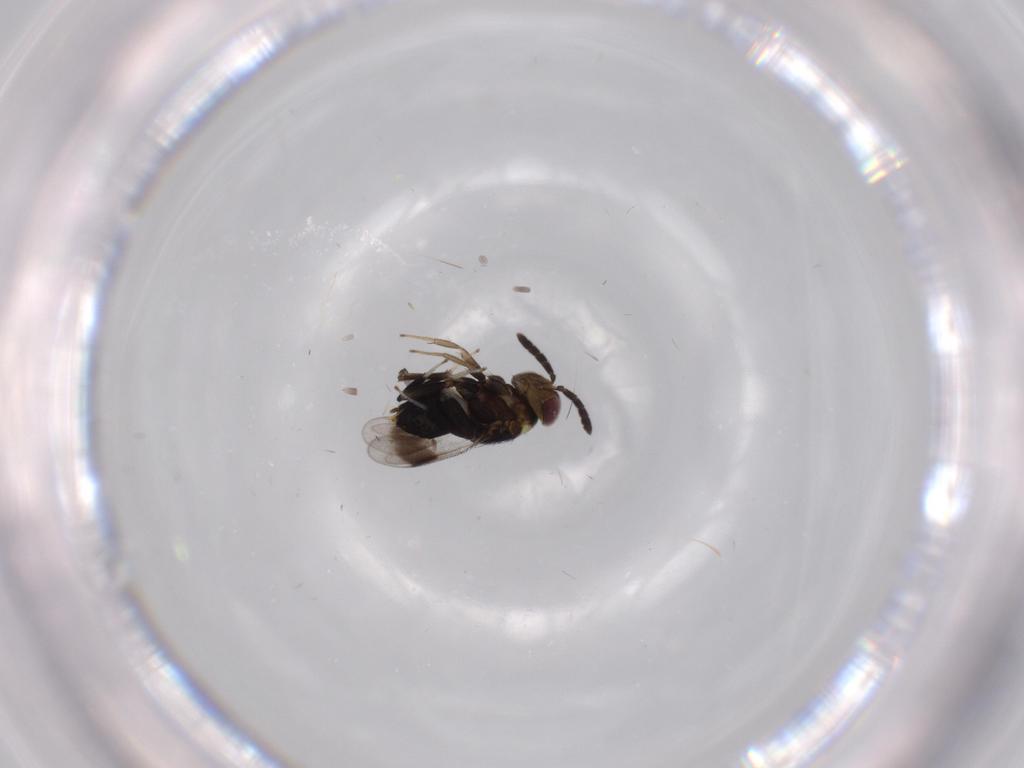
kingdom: Animalia
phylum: Arthropoda
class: Insecta
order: Hymenoptera
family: Aphelinidae
